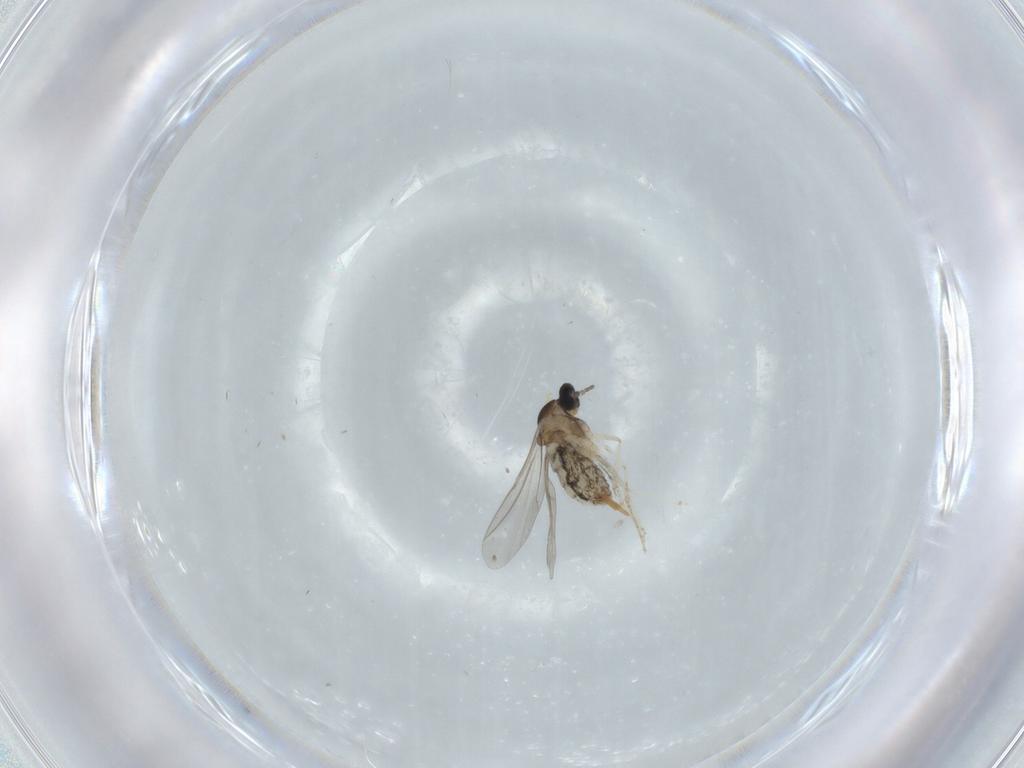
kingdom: Animalia
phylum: Arthropoda
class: Insecta
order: Diptera
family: Cecidomyiidae
